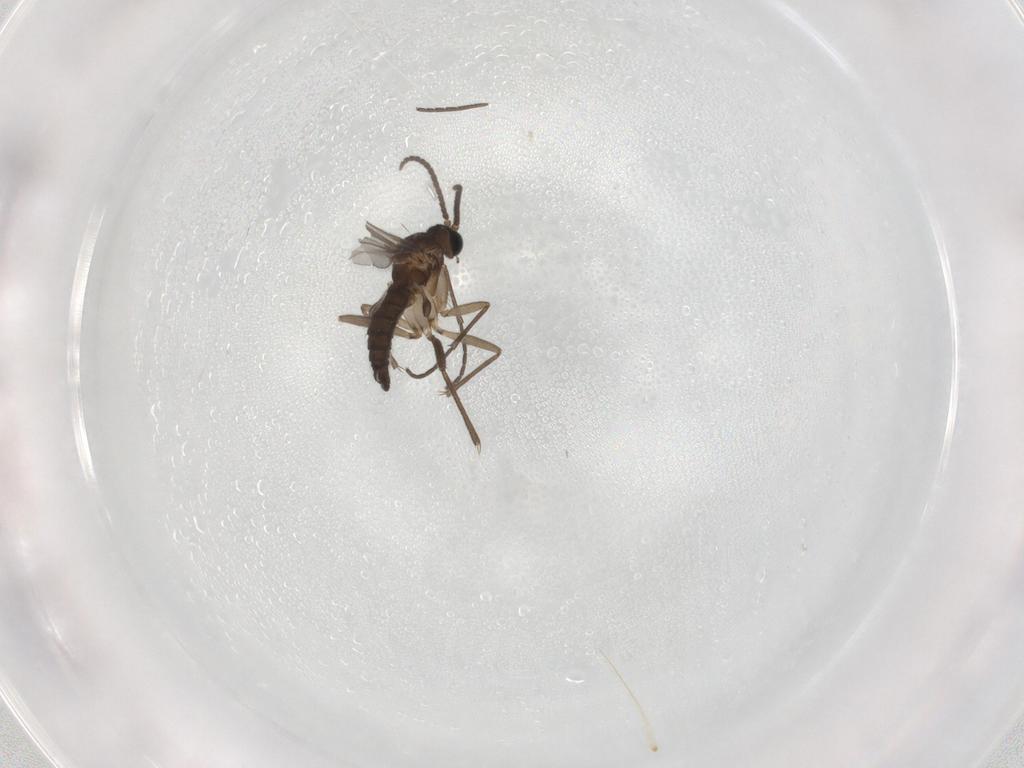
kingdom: Animalia
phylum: Arthropoda
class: Insecta
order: Diptera
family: Sciaridae
